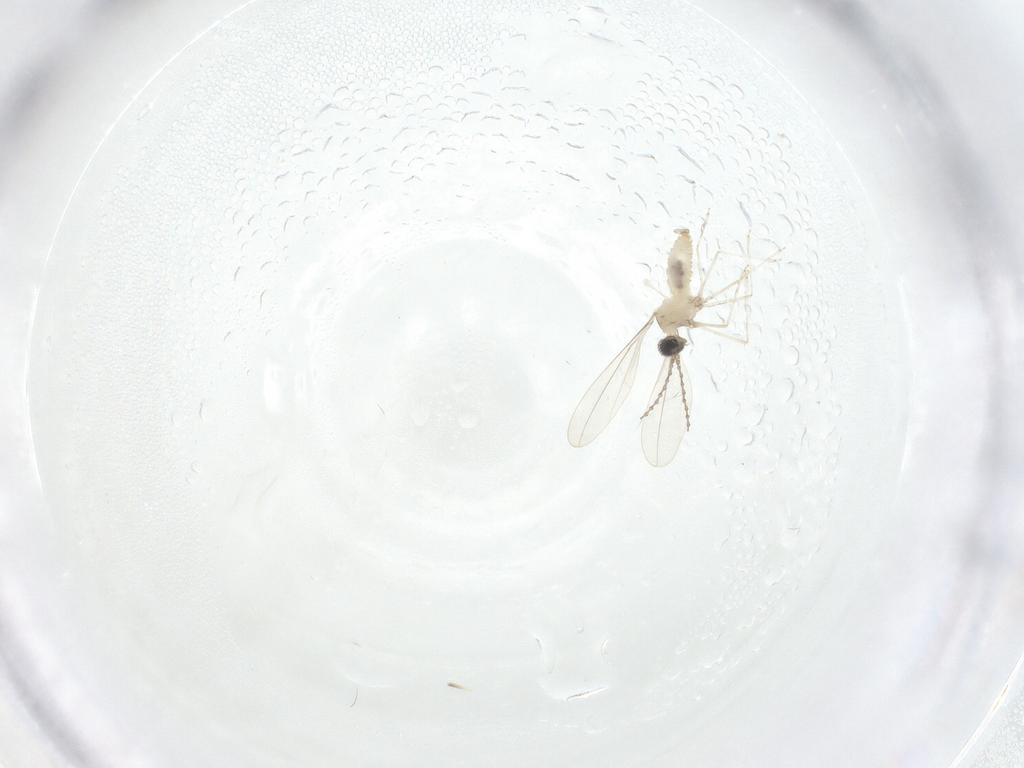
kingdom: Animalia
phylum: Arthropoda
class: Insecta
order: Diptera
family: Cecidomyiidae
